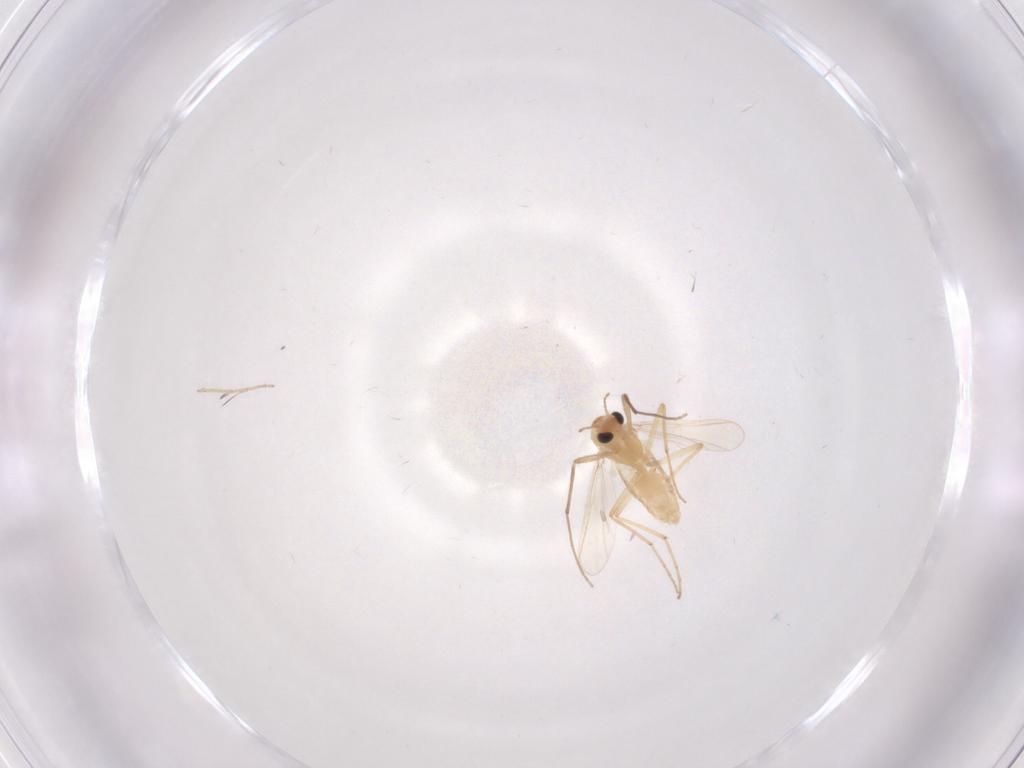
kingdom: Animalia
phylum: Arthropoda
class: Insecta
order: Diptera
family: Chironomidae
